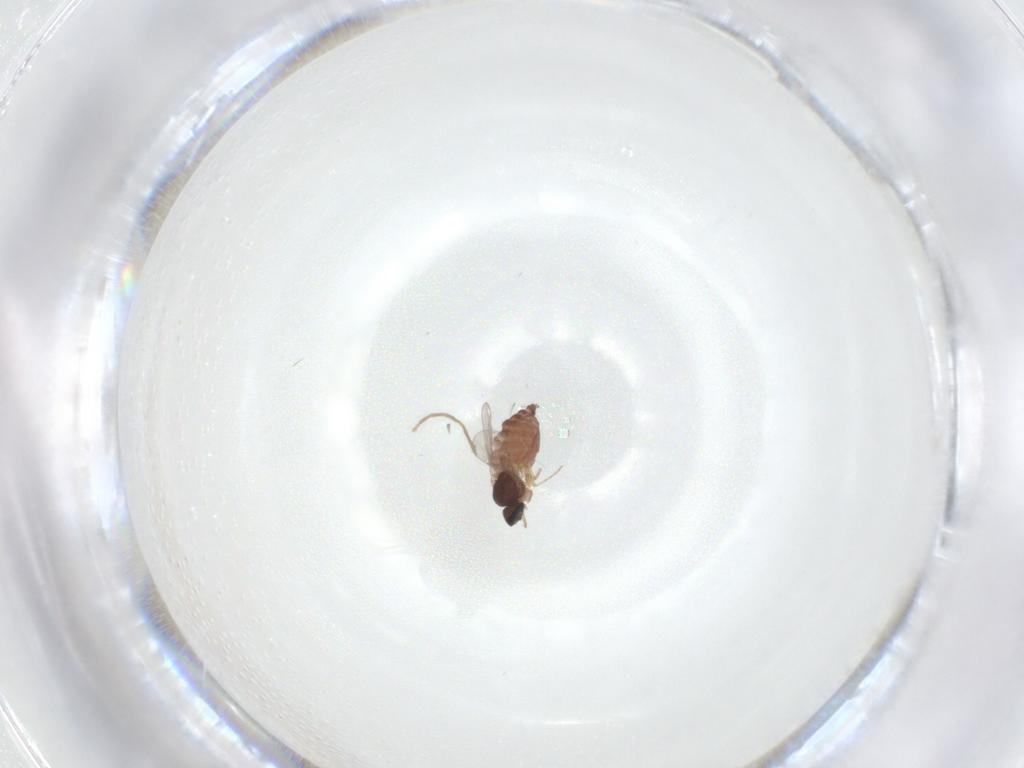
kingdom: Animalia
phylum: Arthropoda
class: Insecta
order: Diptera
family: Ceratopogonidae
